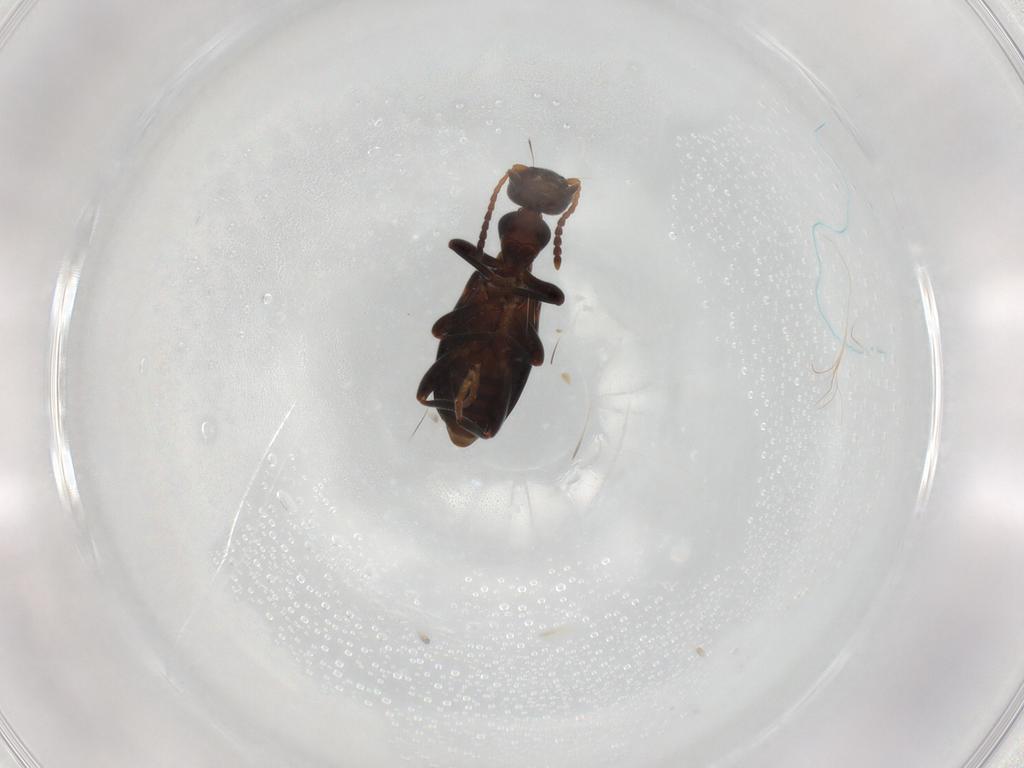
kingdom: Animalia
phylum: Arthropoda
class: Insecta
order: Coleoptera
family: Anthicidae
